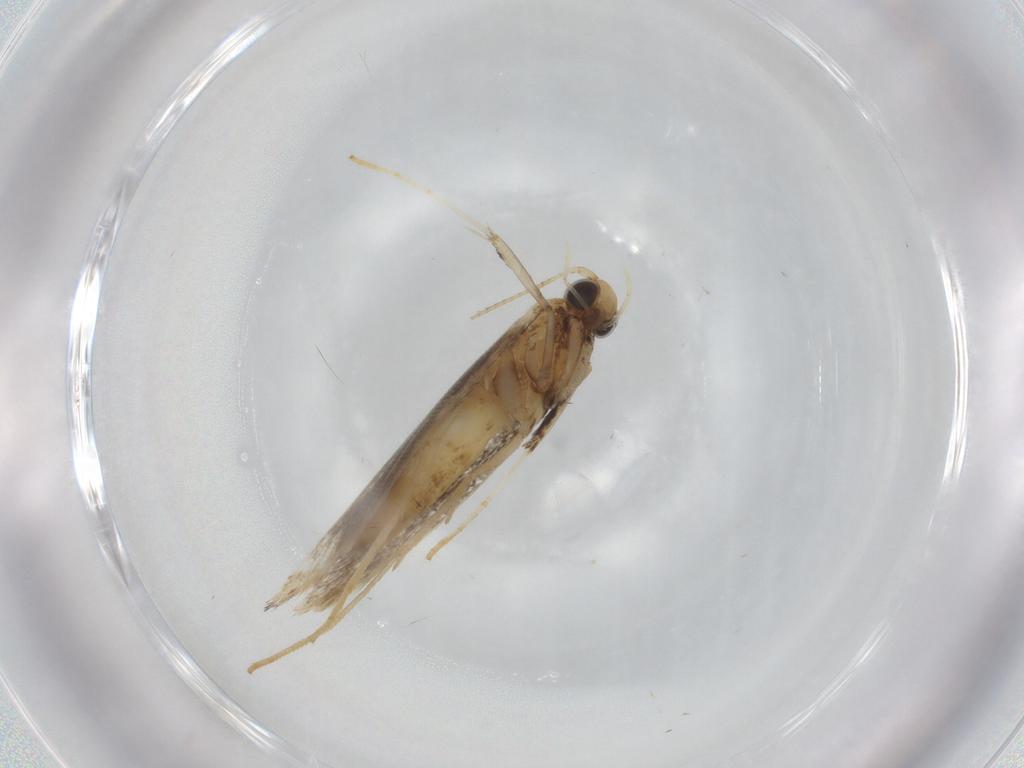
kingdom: Animalia
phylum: Arthropoda
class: Insecta
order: Lepidoptera
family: Gracillariidae
